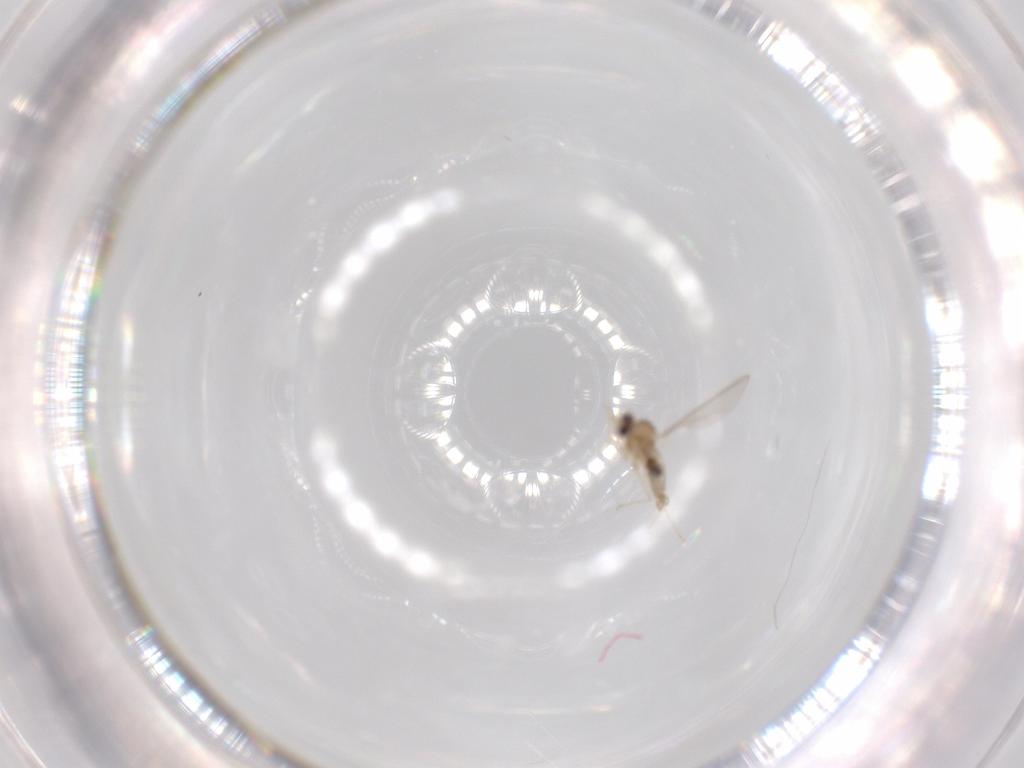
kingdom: Animalia
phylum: Arthropoda
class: Insecta
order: Diptera
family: Cecidomyiidae
